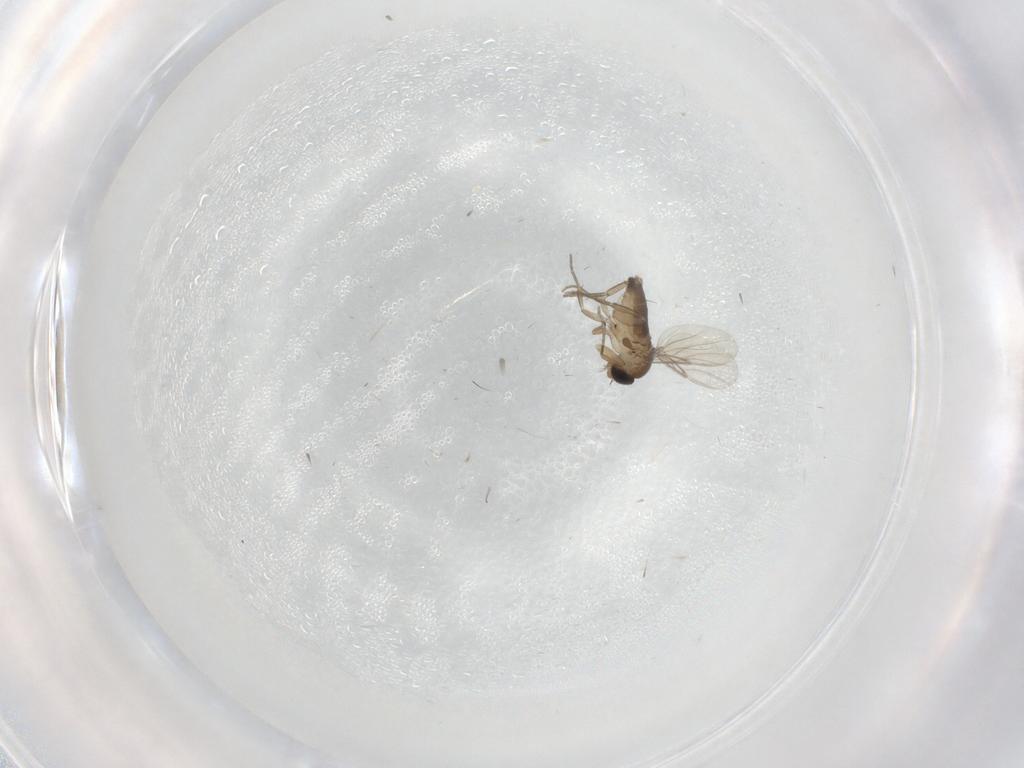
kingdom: Animalia
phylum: Arthropoda
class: Insecta
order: Diptera
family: Phoridae
